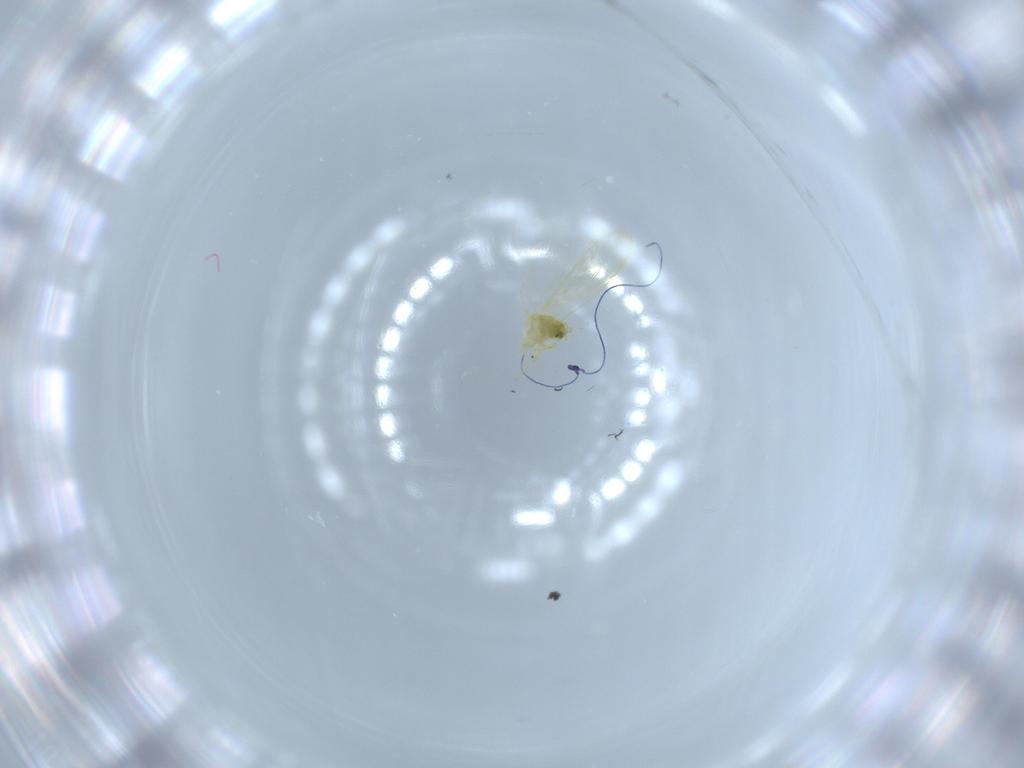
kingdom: Animalia
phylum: Arthropoda
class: Insecta
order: Hemiptera
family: Aleyrodidae
